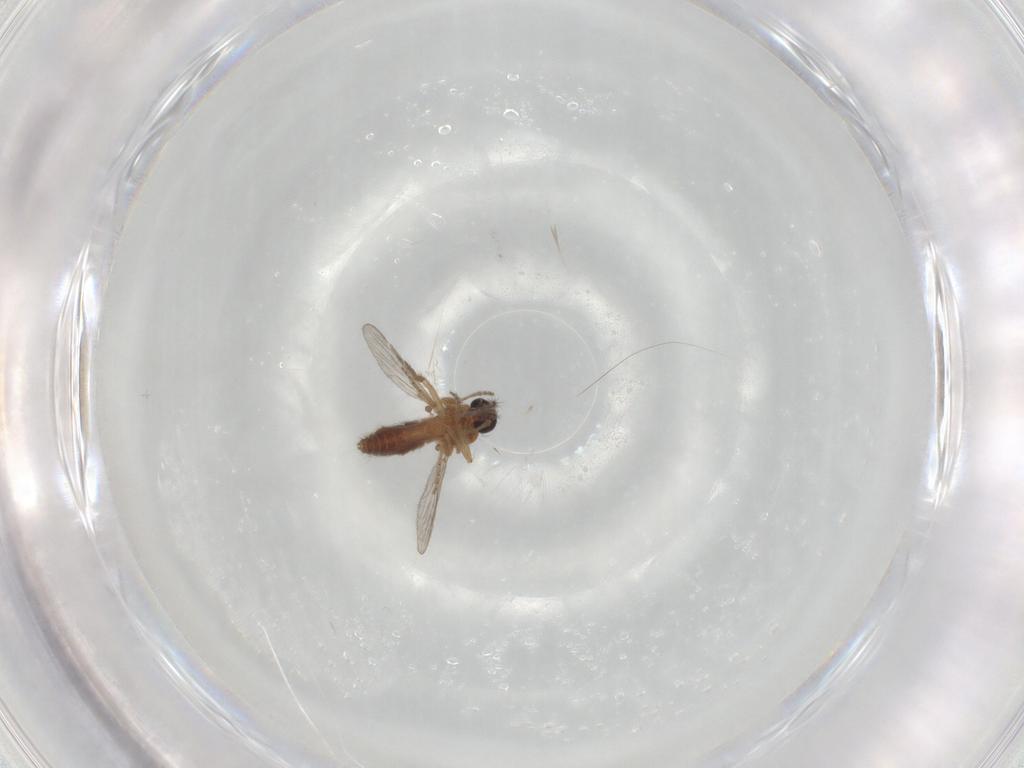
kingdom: Animalia
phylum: Arthropoda
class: Insecta
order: Diptera
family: Ceratopogonidae
